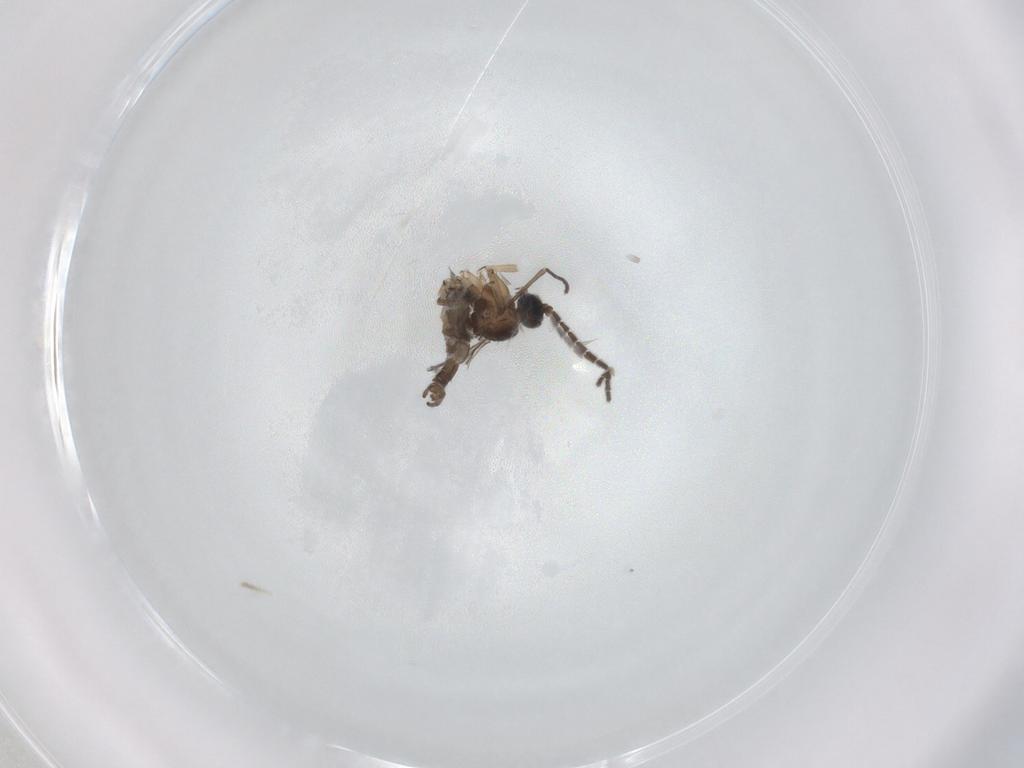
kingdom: Animalia
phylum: Arthropoda
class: Insecta
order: Diptera
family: Sciaridae
